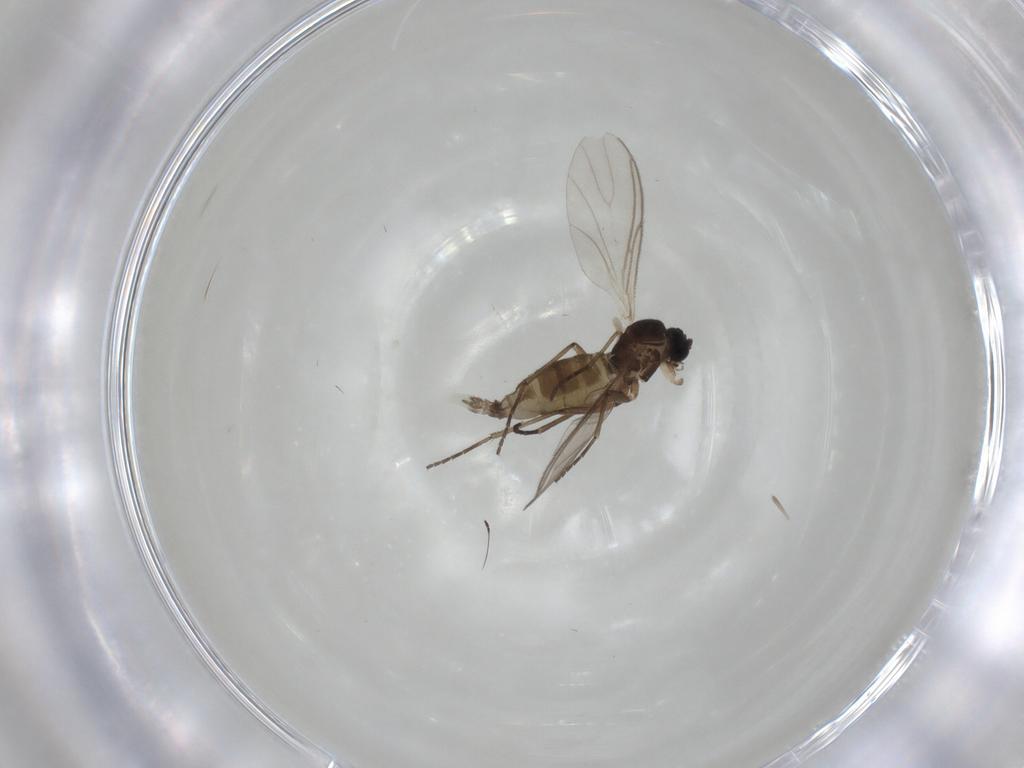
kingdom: Animalia
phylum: Arthropoda
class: Insecta
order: Diptera
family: Heleomyzidae
